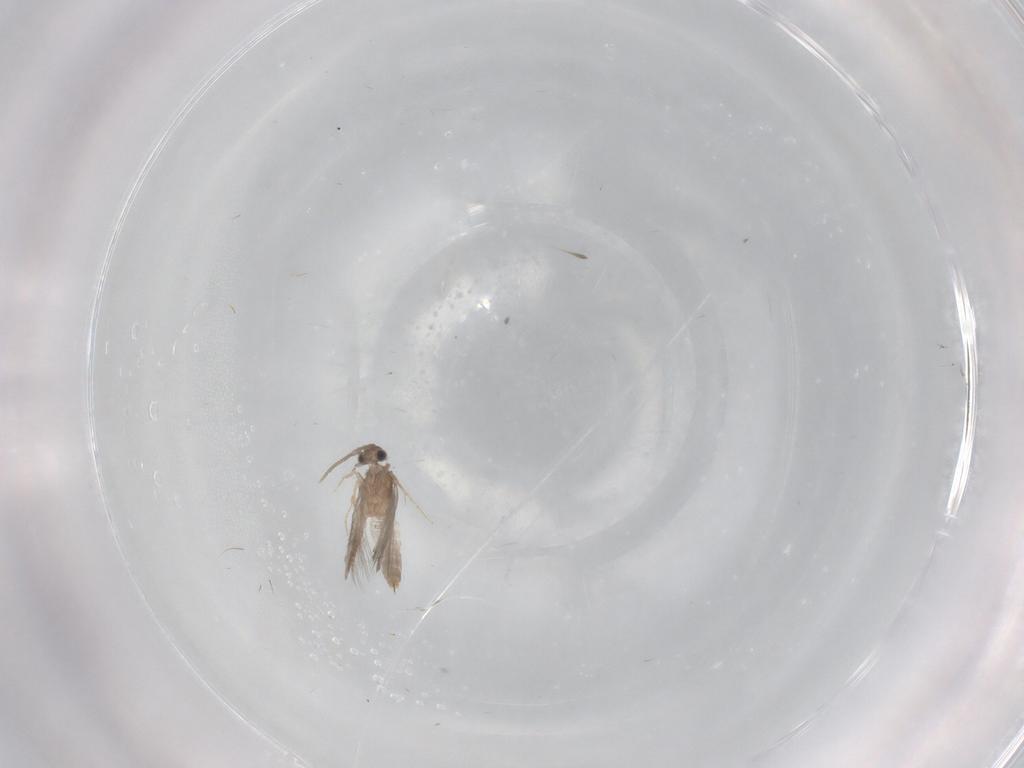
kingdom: Animalia
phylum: Arthropoda
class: Insecta
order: Trichoptera
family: Hydroptilidae
